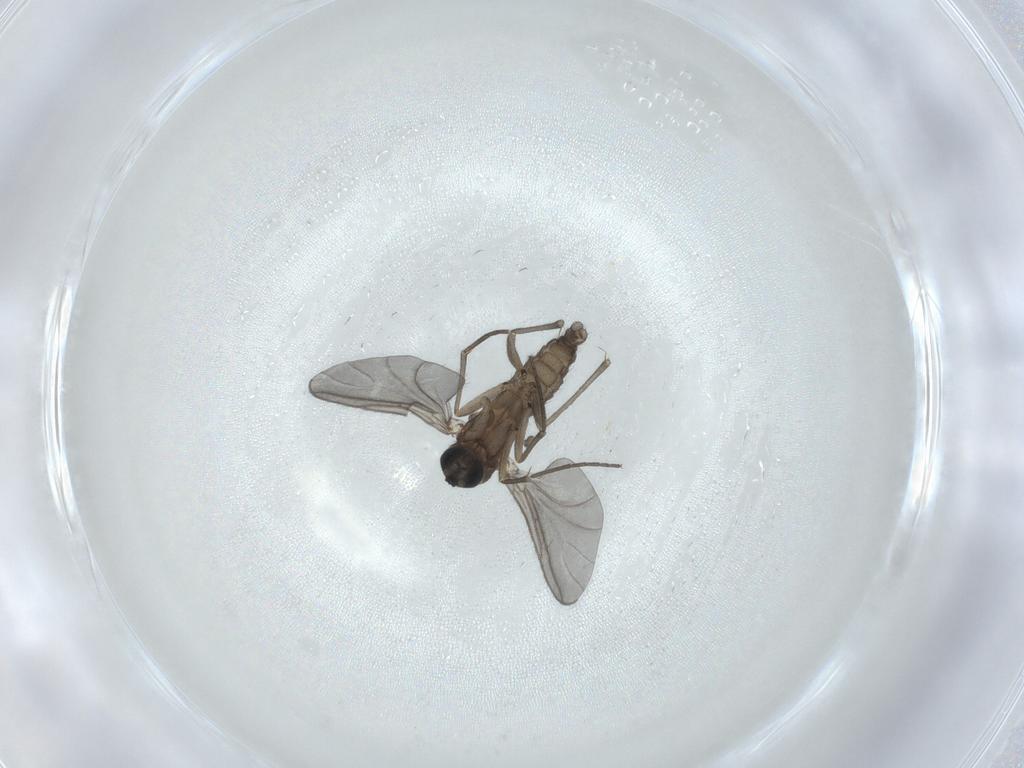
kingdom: Animalia
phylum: Arthropoda
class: Insecta
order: Diptera
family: Sciaridae
